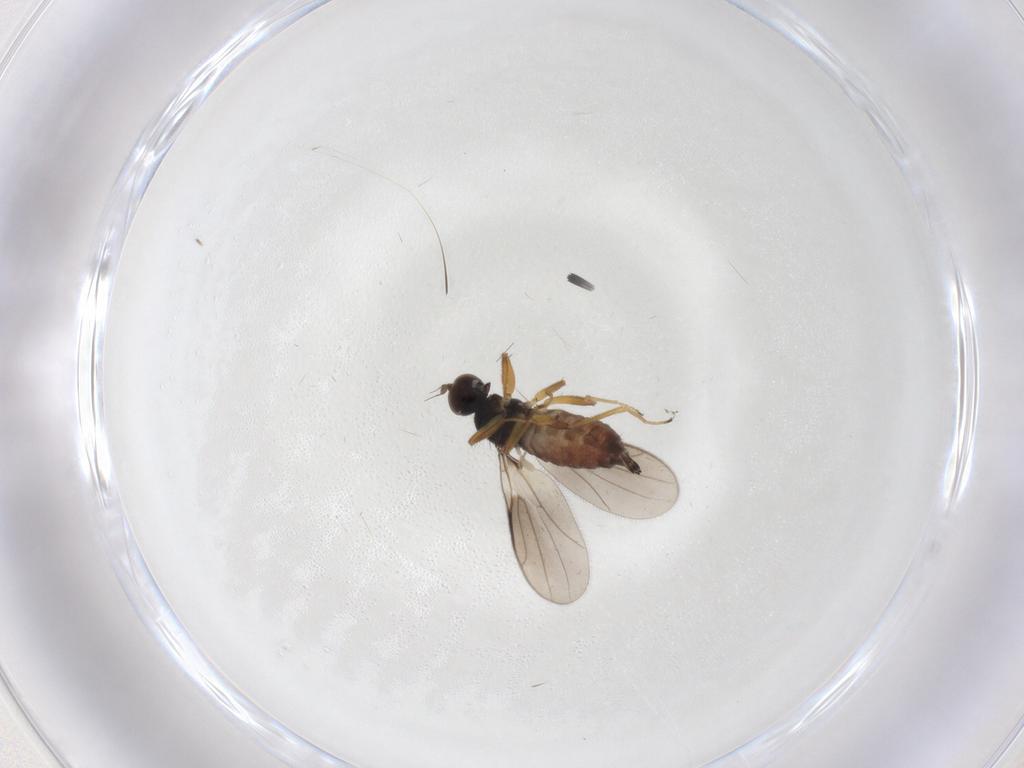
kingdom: Animalia
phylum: Arthropoda
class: Insecta
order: Diptera
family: Hybotidae
